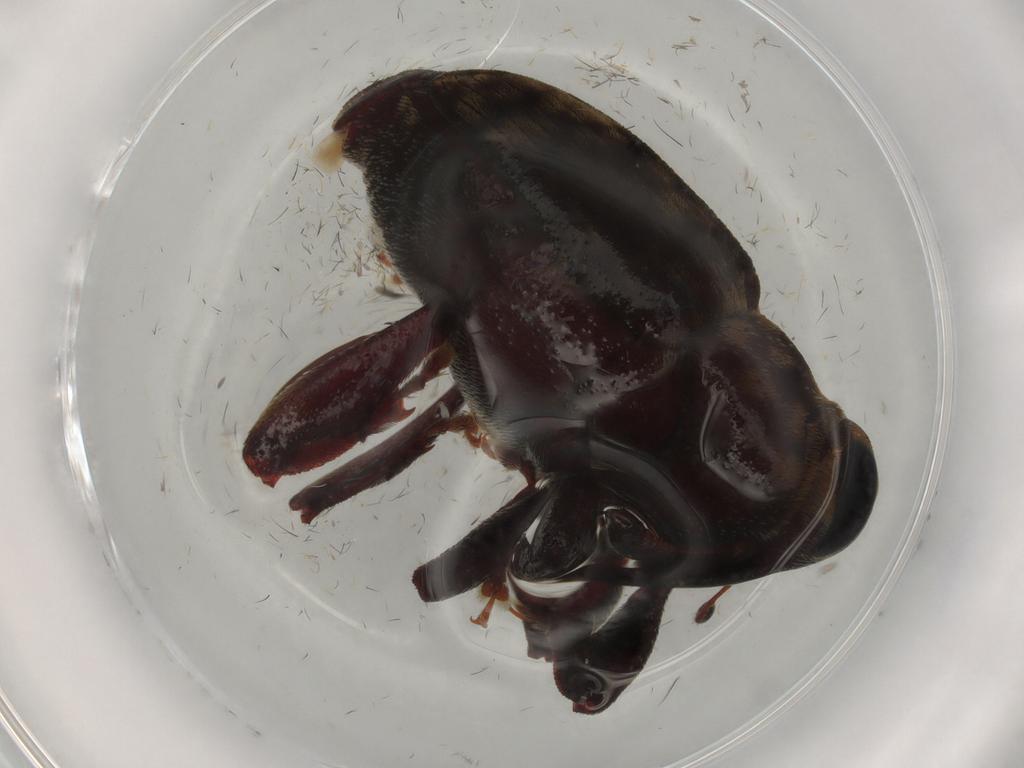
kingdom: Animalia
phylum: Arthropoda
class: Insecta
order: Coleoptera
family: Curculionidae
